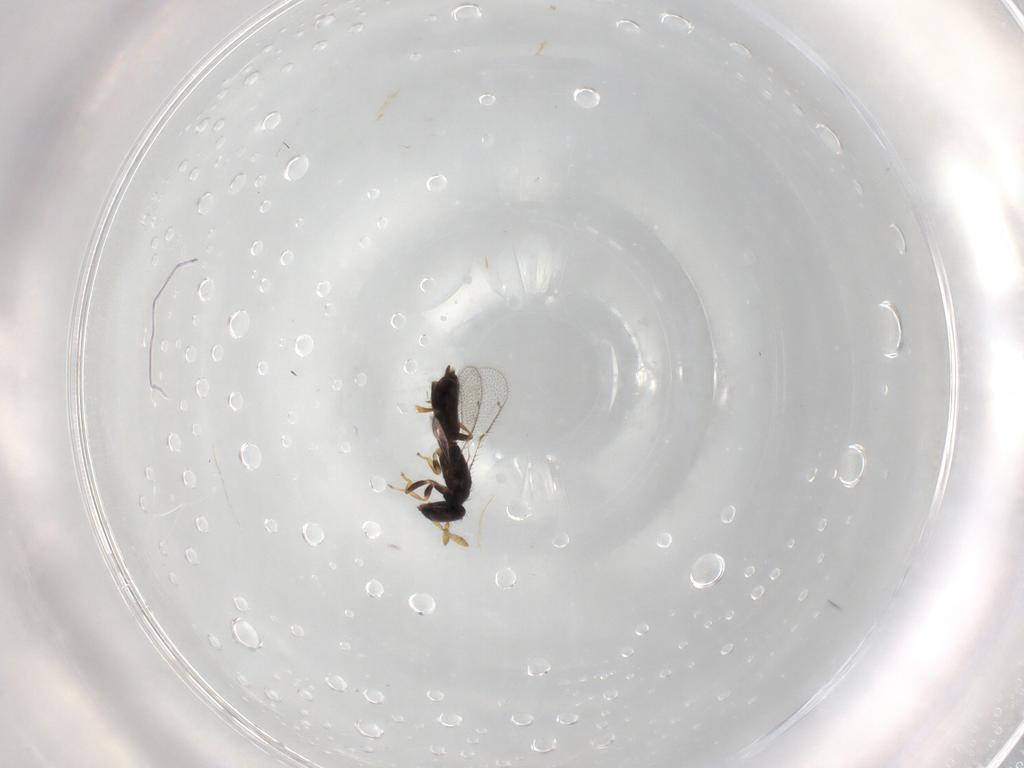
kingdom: Animalia
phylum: Arthropoda
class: Insecta
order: Hymenoptera
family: Pirenidae
